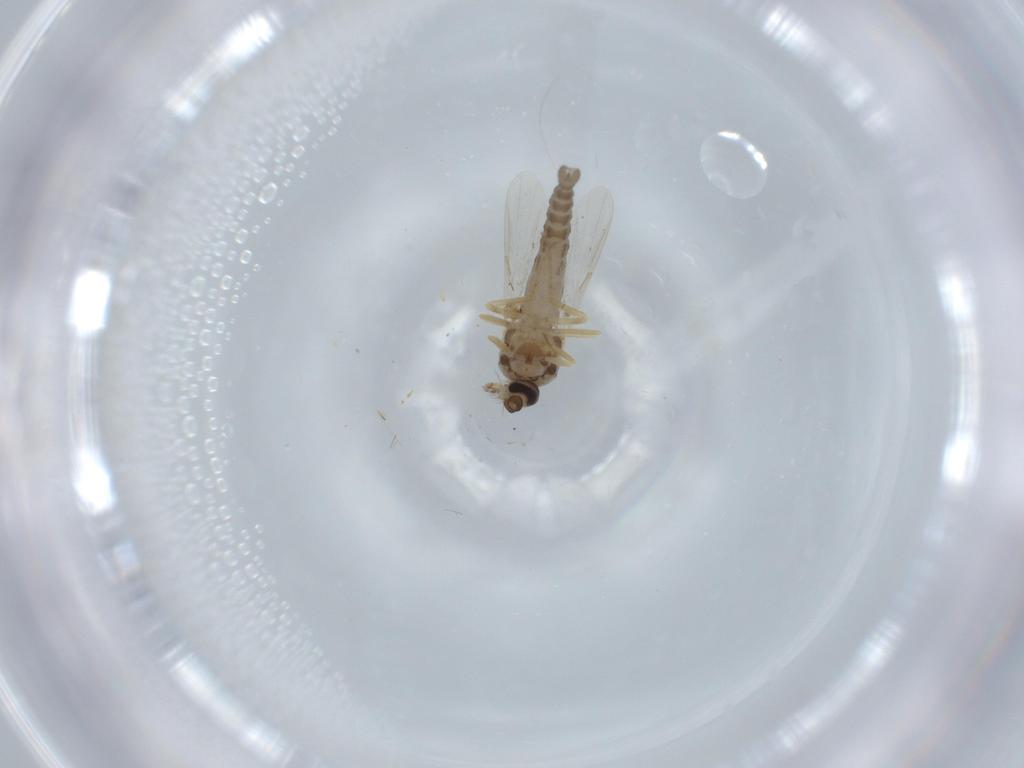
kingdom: Animalia
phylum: Arthropoda
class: Insecta
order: Diptera
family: Ceratopogonidae
